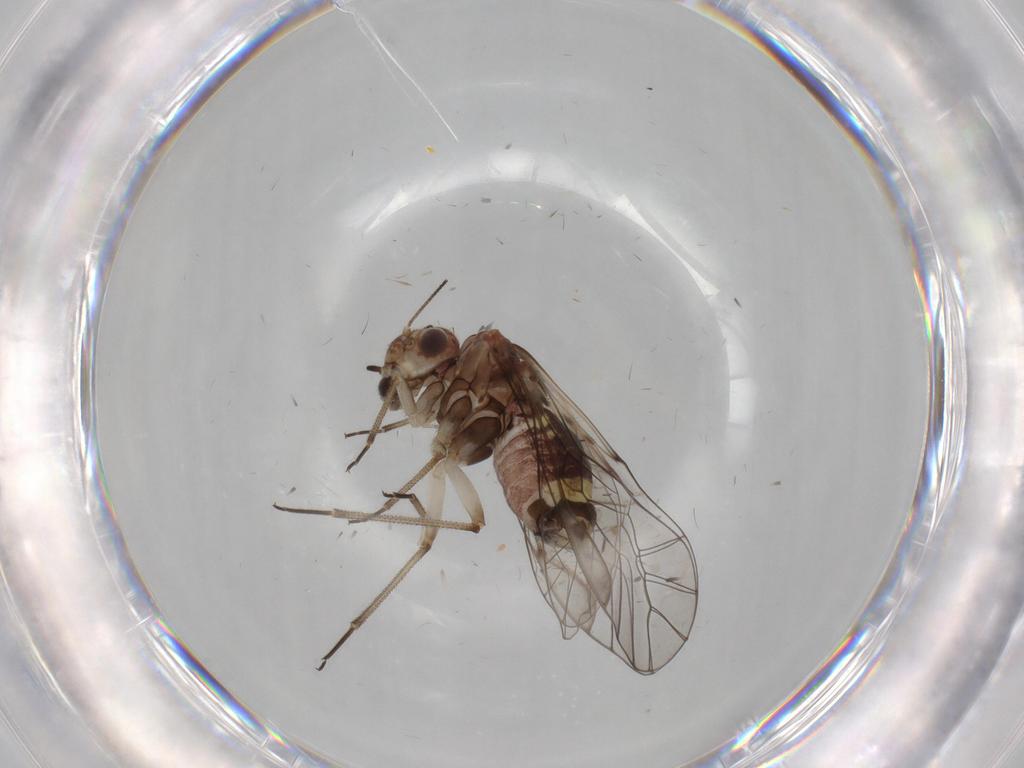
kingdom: Animalia
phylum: Arthropoda
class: Insecta
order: Psocodea
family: Psocidae
